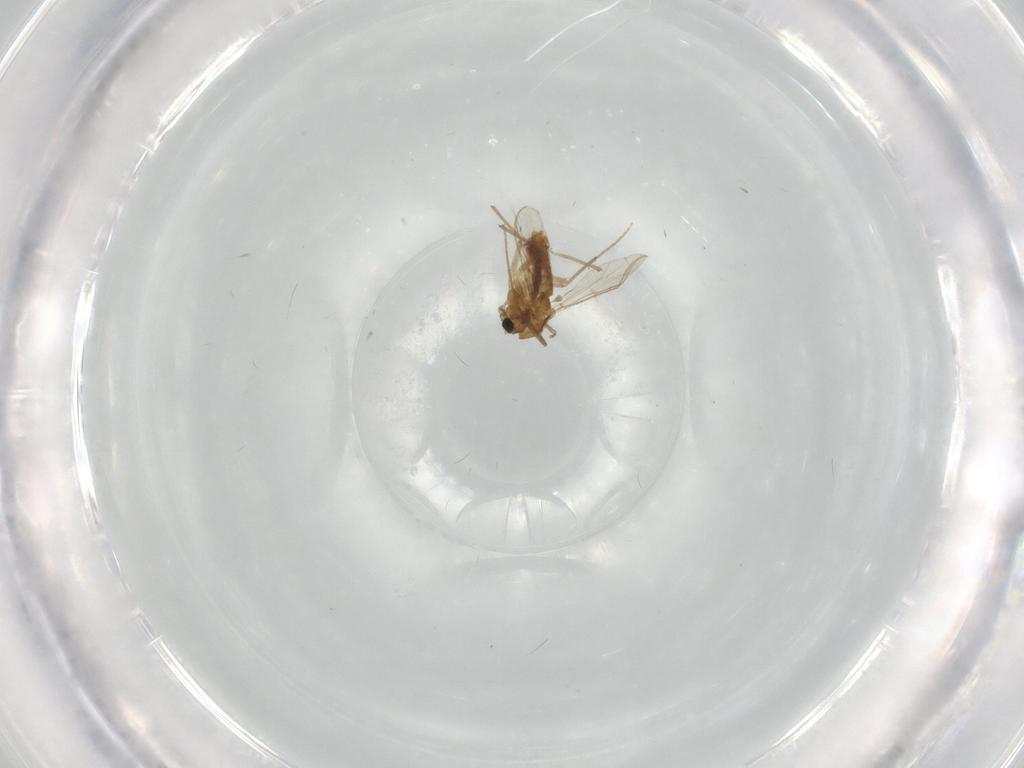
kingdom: Animalia
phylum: Arthropoda
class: Insecta
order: Diptera
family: Chironomidae
